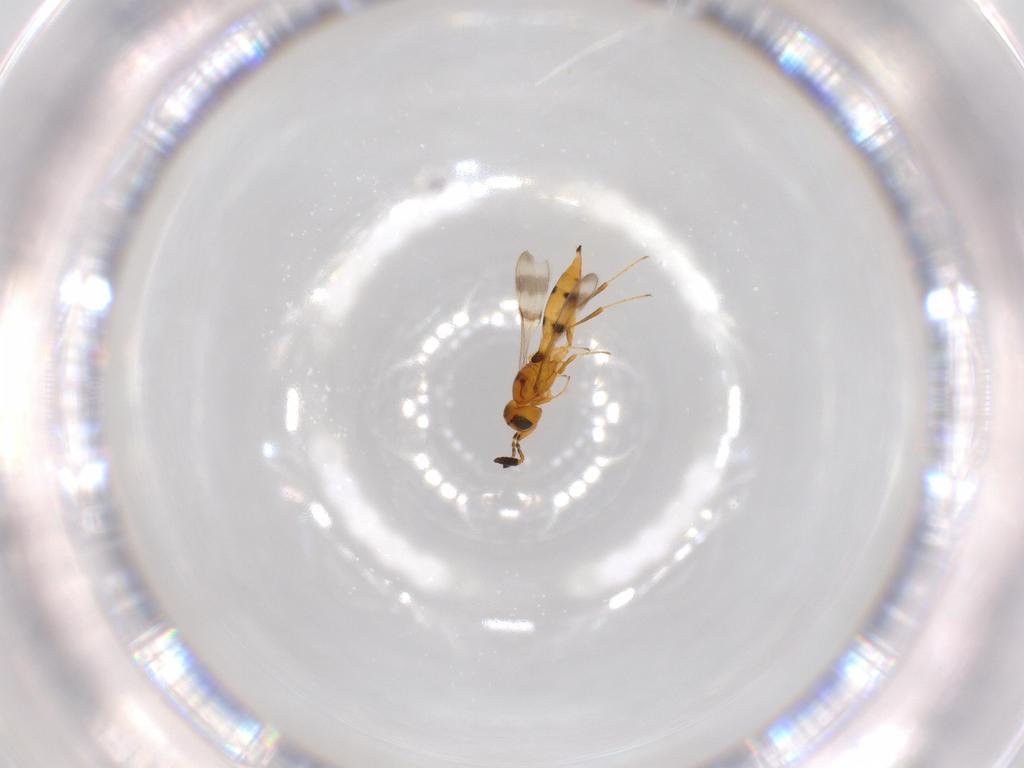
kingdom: Animalia
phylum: Arthropoda
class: Insecta
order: Hymenoptera
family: Scelionidae
